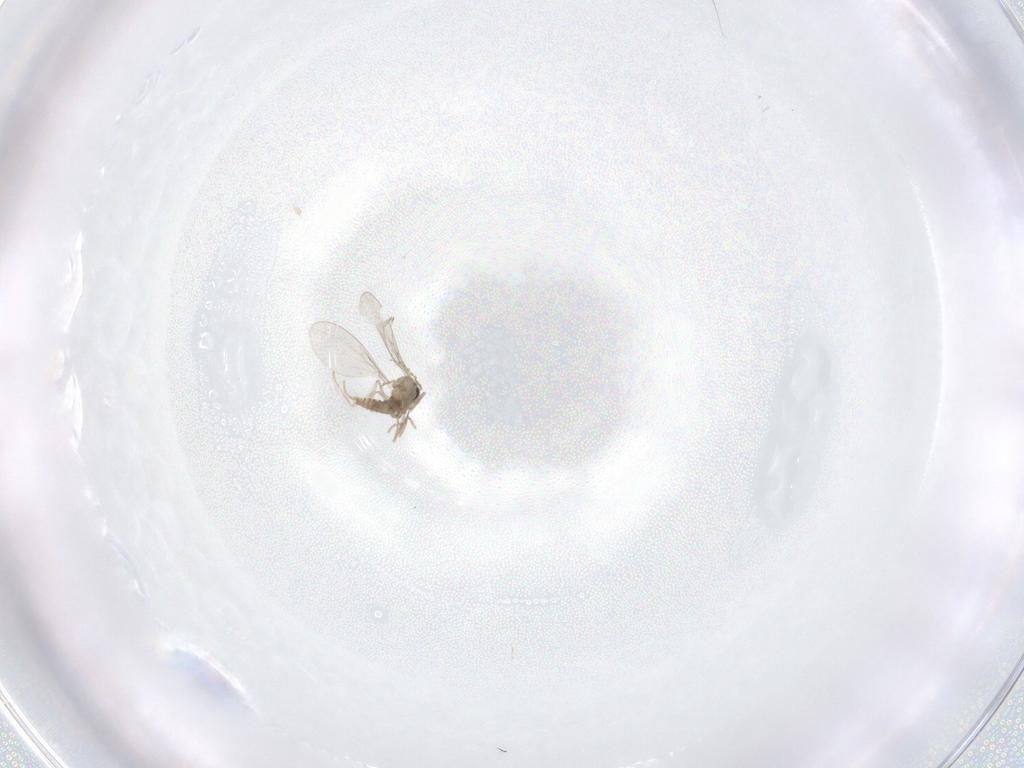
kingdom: Animalia
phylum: Arthropoda
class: Insecta
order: Diptera
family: Cecidomyiidae
